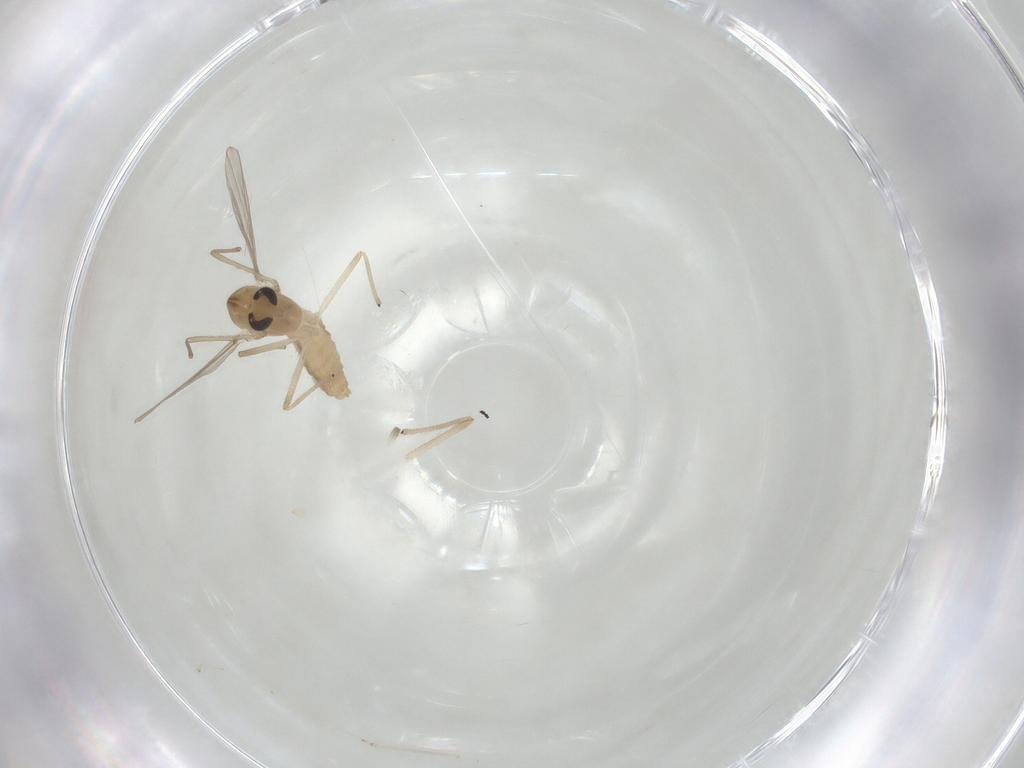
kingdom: Animalia
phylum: Arthropoda
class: Insecta
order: Diptera
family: Chironomidae
